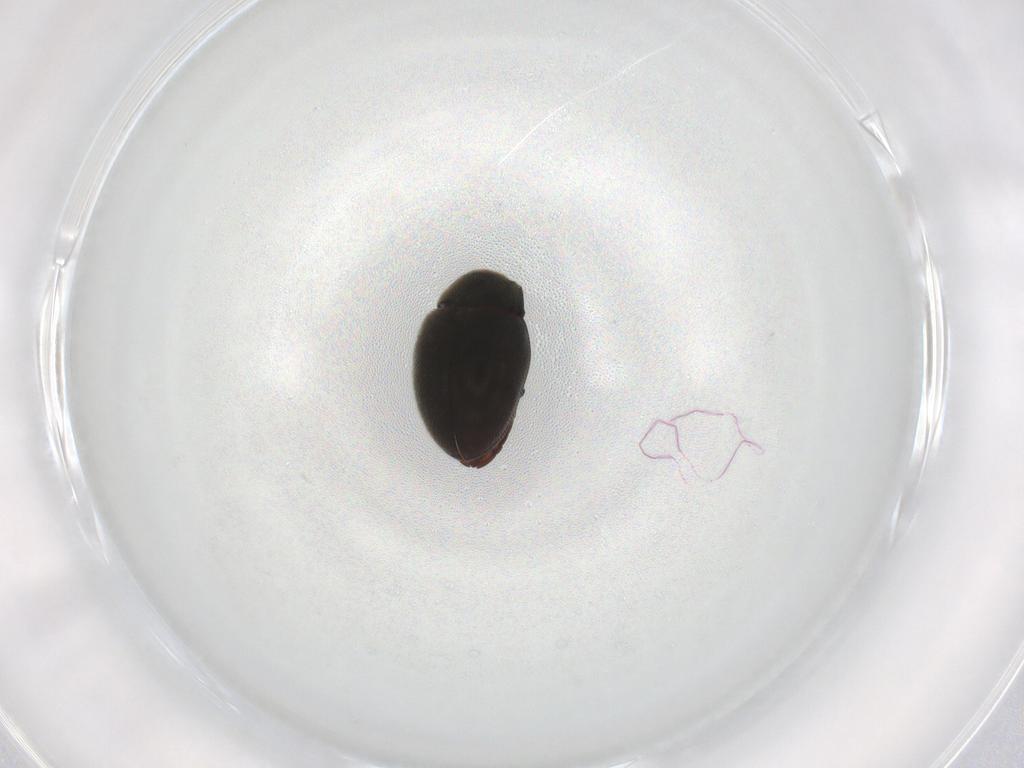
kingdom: Animalia
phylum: Arthropoda
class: Insecta
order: Coleoptera
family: Limnichidae
